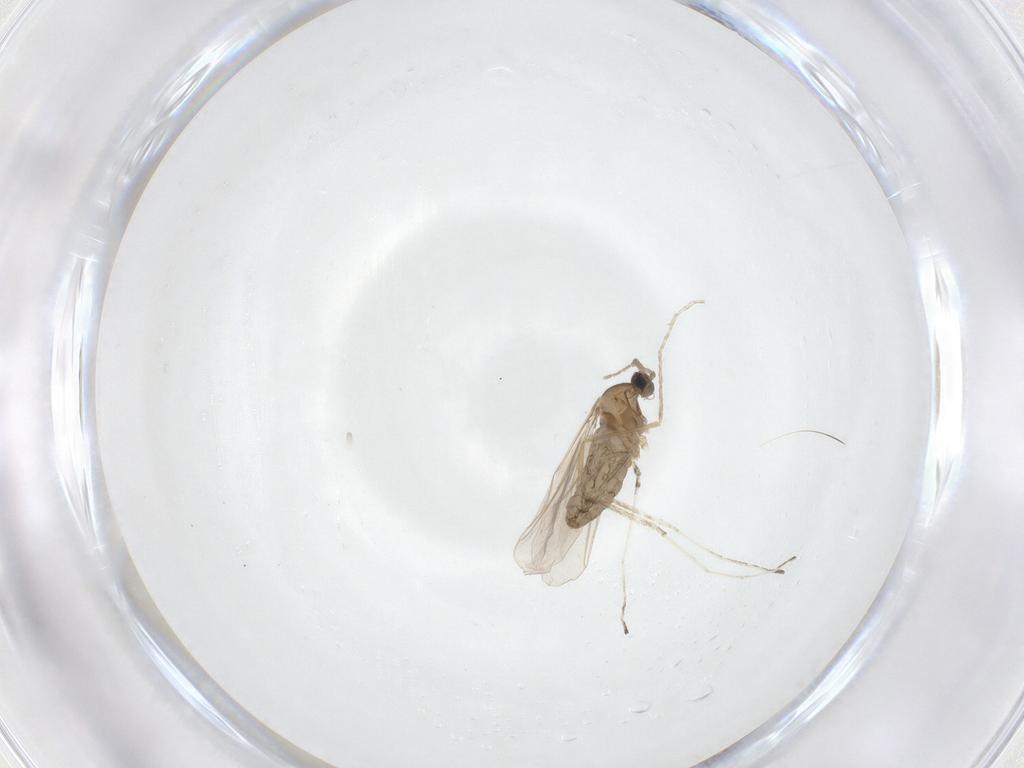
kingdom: Animalia
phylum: Arthropoda
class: Insecta
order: Diptera
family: Cecidomyiidae
